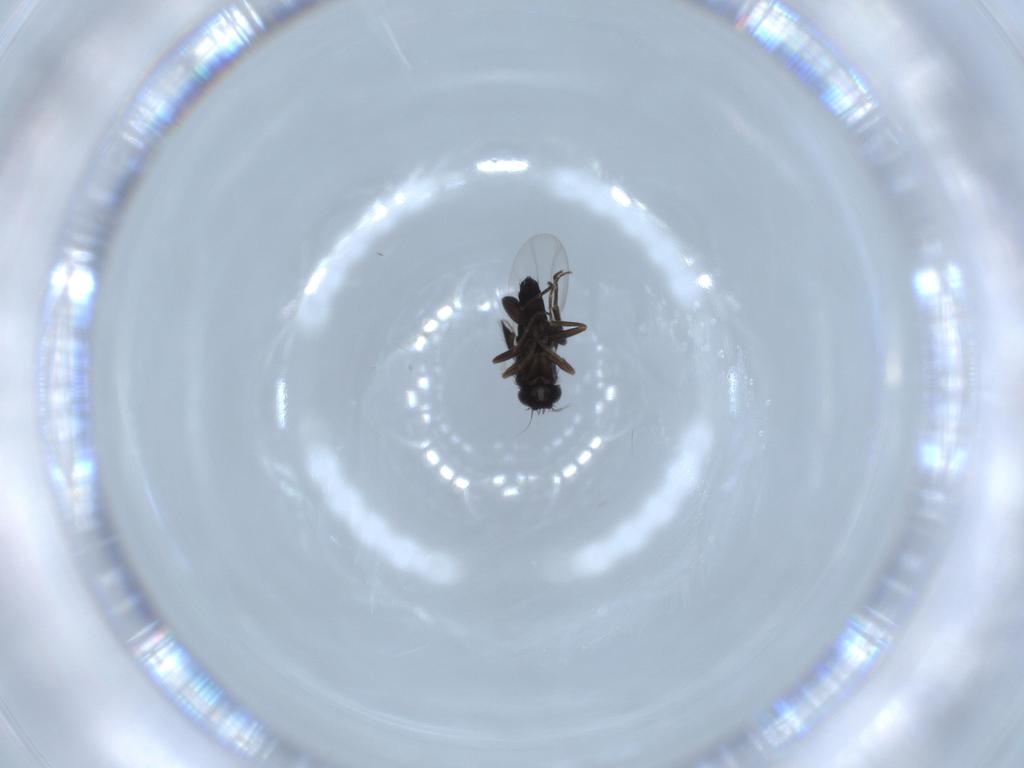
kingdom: Animalia
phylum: Arthropoda
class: Insecta
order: Diptera
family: Phoridae
